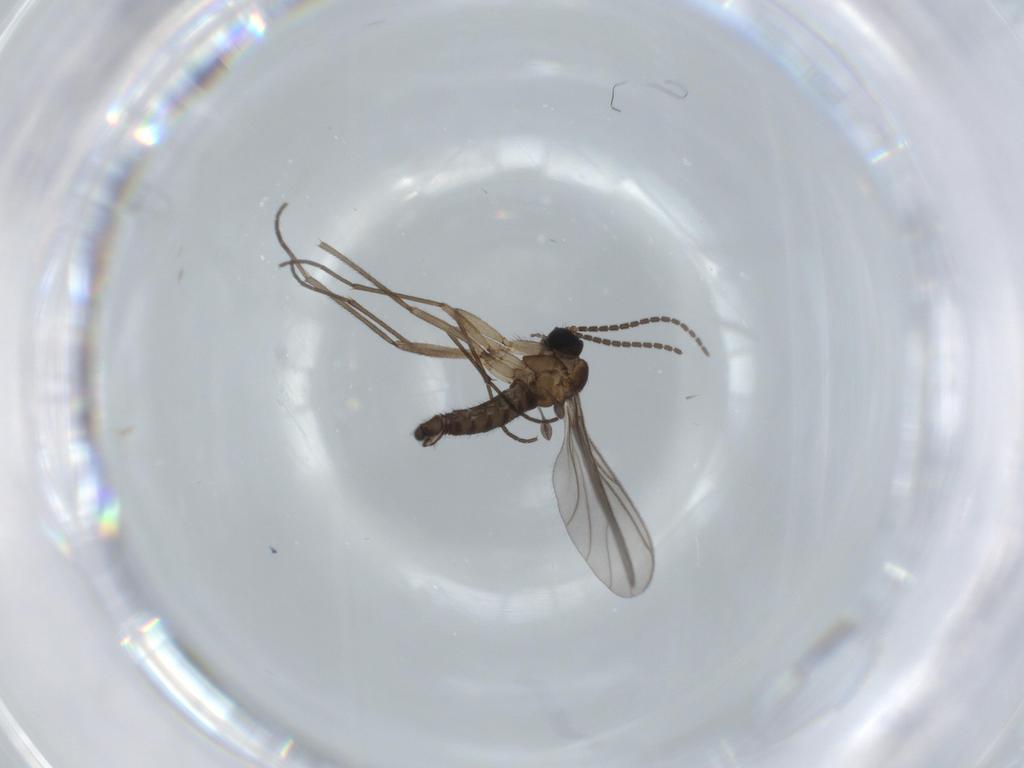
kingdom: Animalia
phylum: Arthropoda
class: Insecta
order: Diptera
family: Sciaridae
